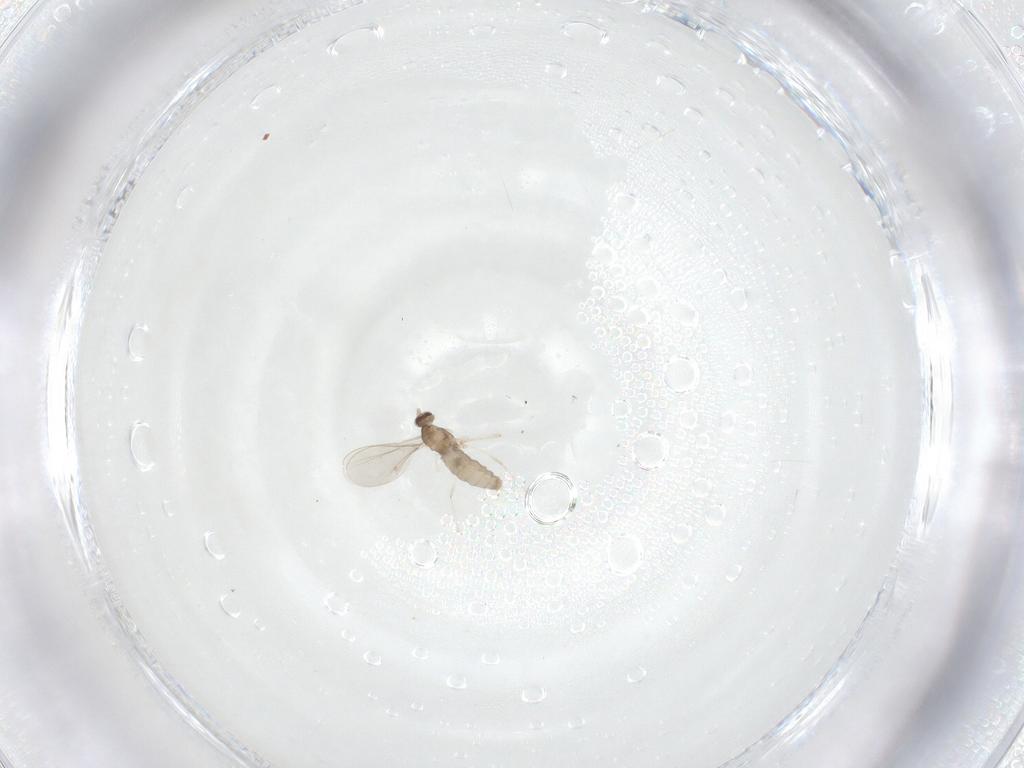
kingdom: Animalia
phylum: Arthropoda
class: Insecta
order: Diptera
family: Cecidomyiidae
